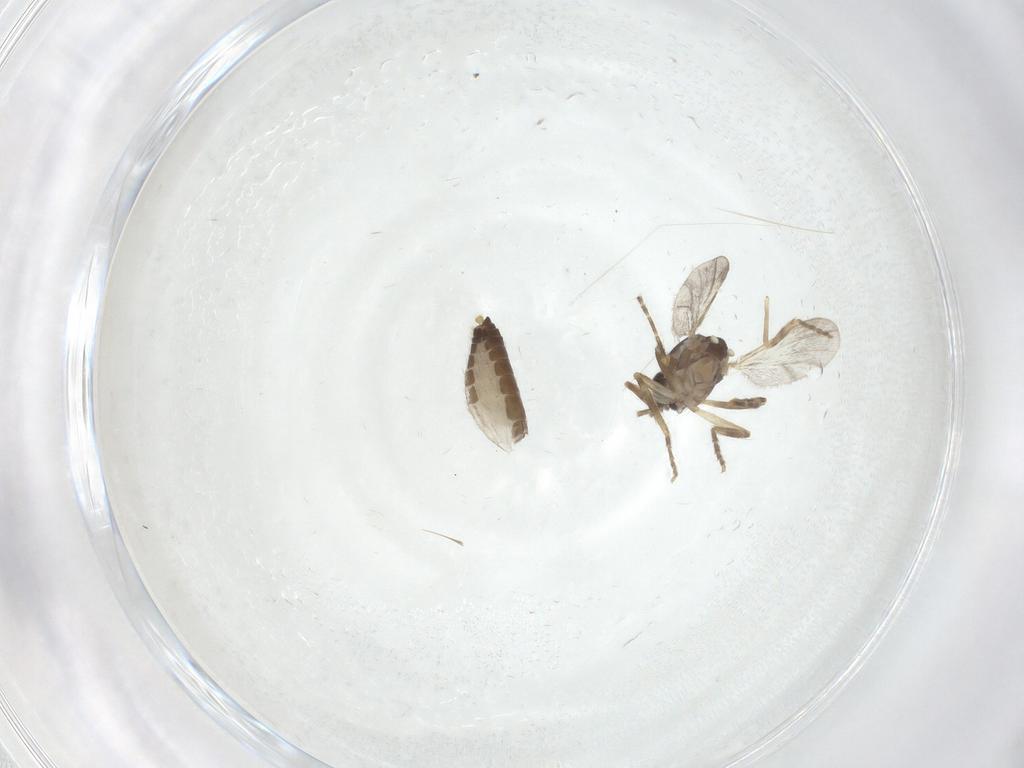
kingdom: Animalia
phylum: Arthropoda
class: Insecta
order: Diptera
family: Ceratopogonidae
